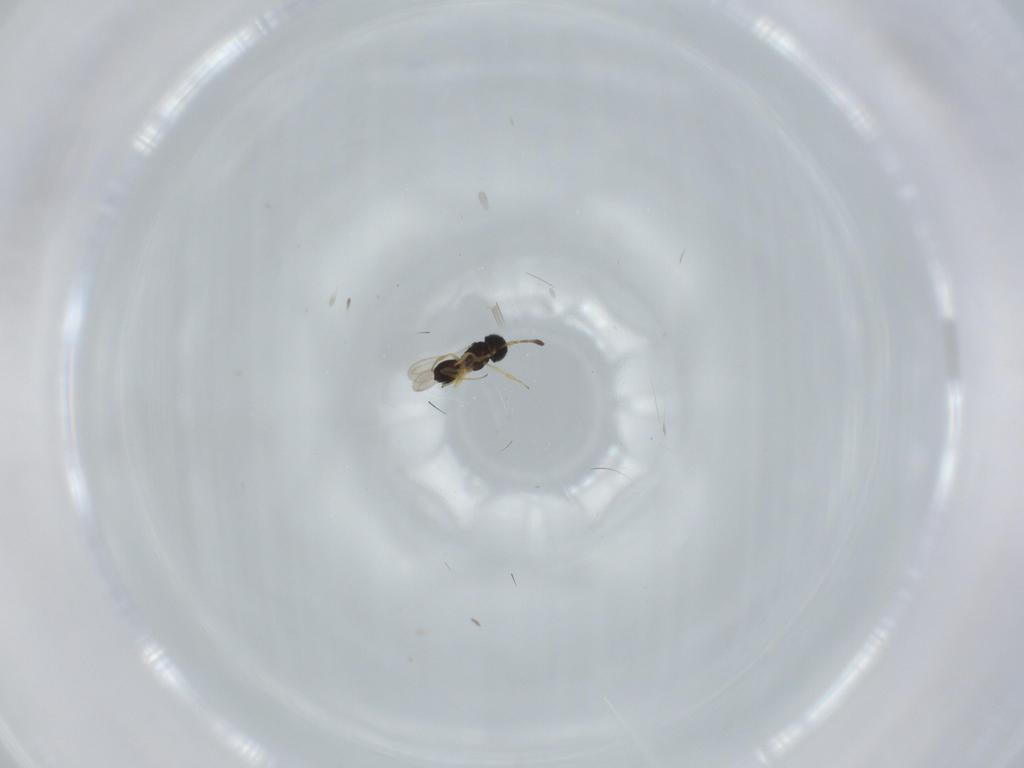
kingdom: Animalia
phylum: Arthropoda
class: Insecta
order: Hymenoptera
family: Scelionidae
